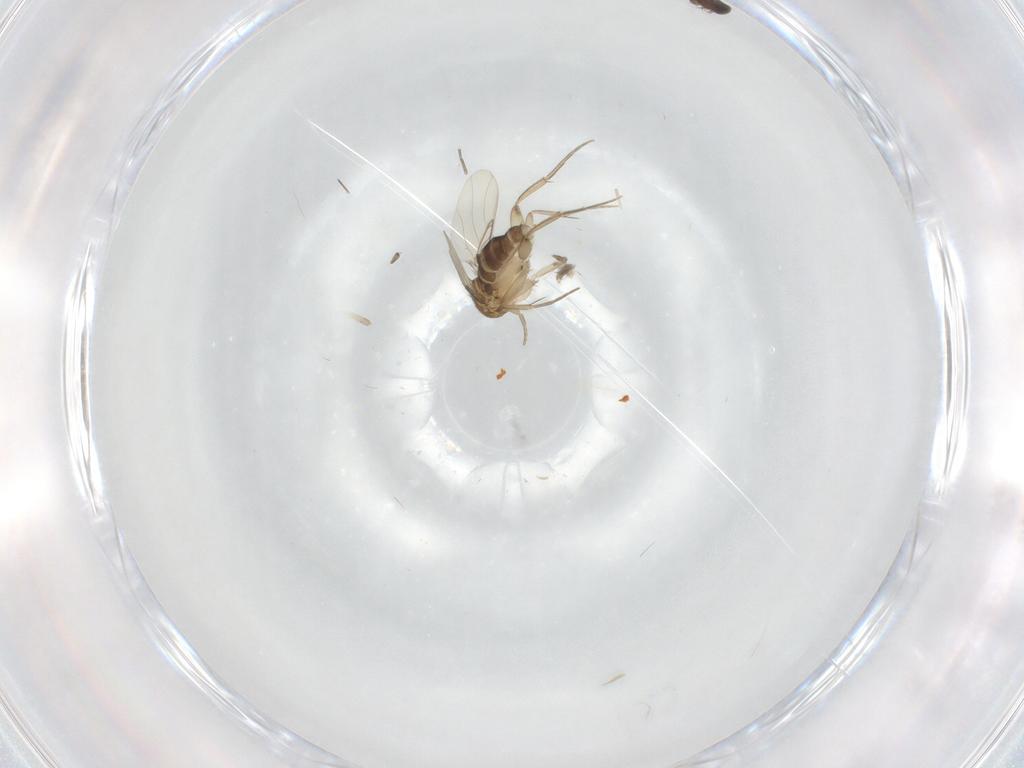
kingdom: Animalia
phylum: Arthropoda
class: Insecta
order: Diptera
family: Phoridae
